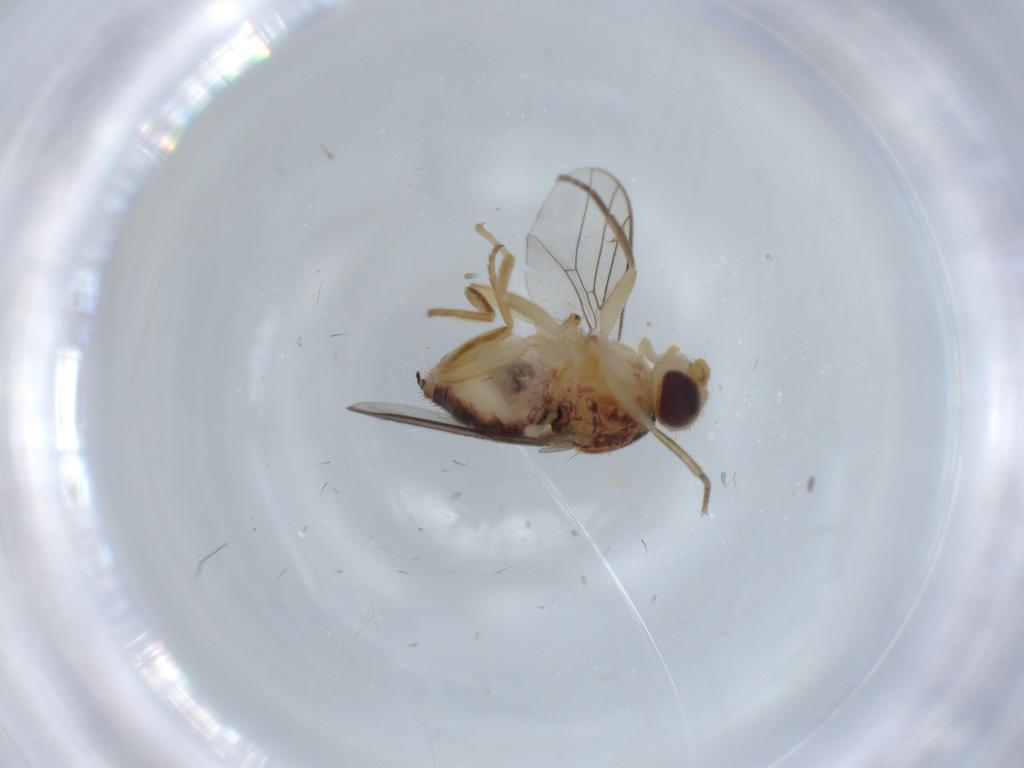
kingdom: Animalia
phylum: Arthropoda
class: Insecta
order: Diptera
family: Chloropidae
